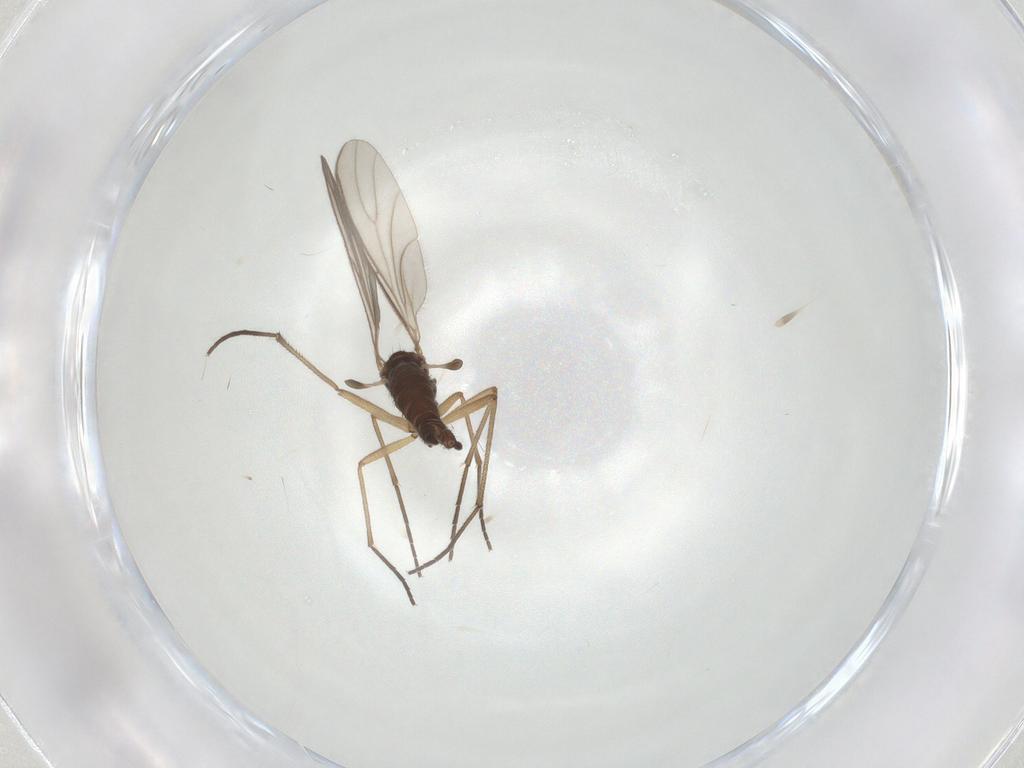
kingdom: Animalia
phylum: Arthropoda
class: Insecta
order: Diptera
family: Sciaridae
